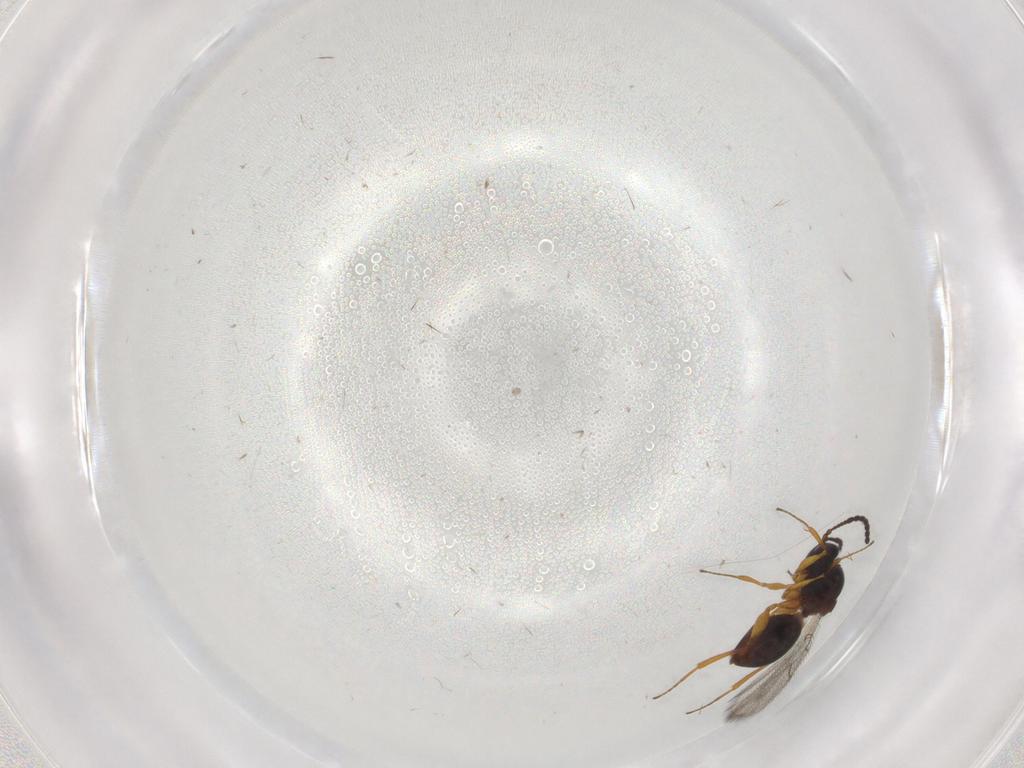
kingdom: Animalia
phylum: Arthropoda
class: Insecta
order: Hymenoptera
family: Figitidae
